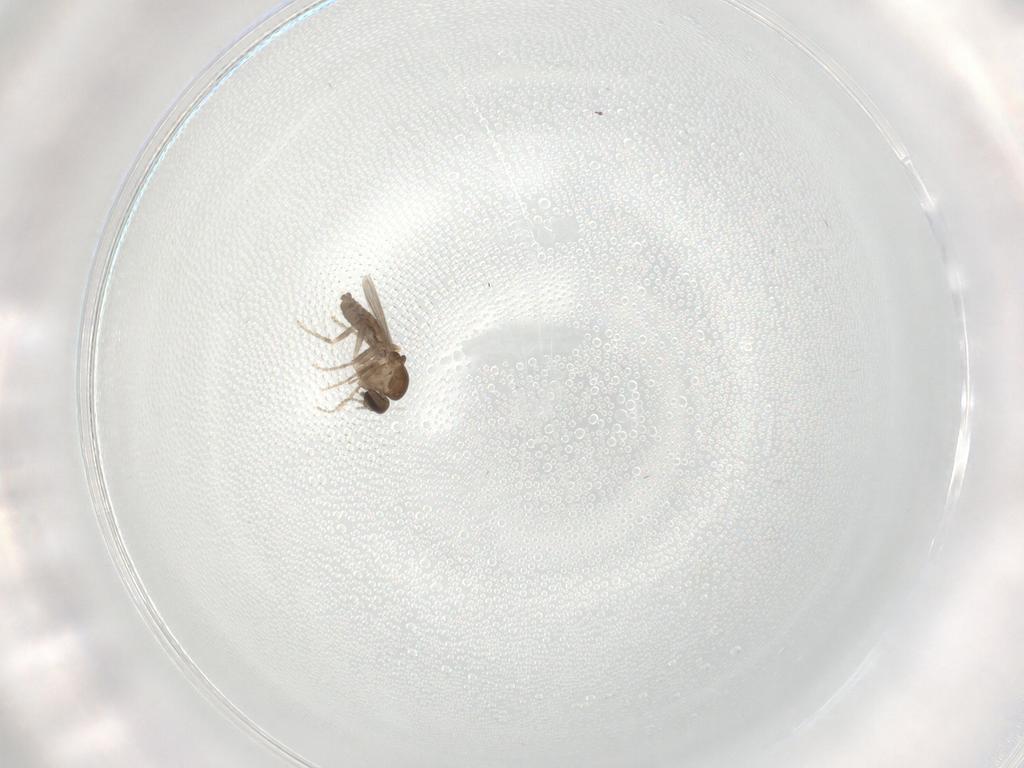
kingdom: Animalia
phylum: Arthropoda
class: Insecta
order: Diptera
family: Ceratopogonidae
